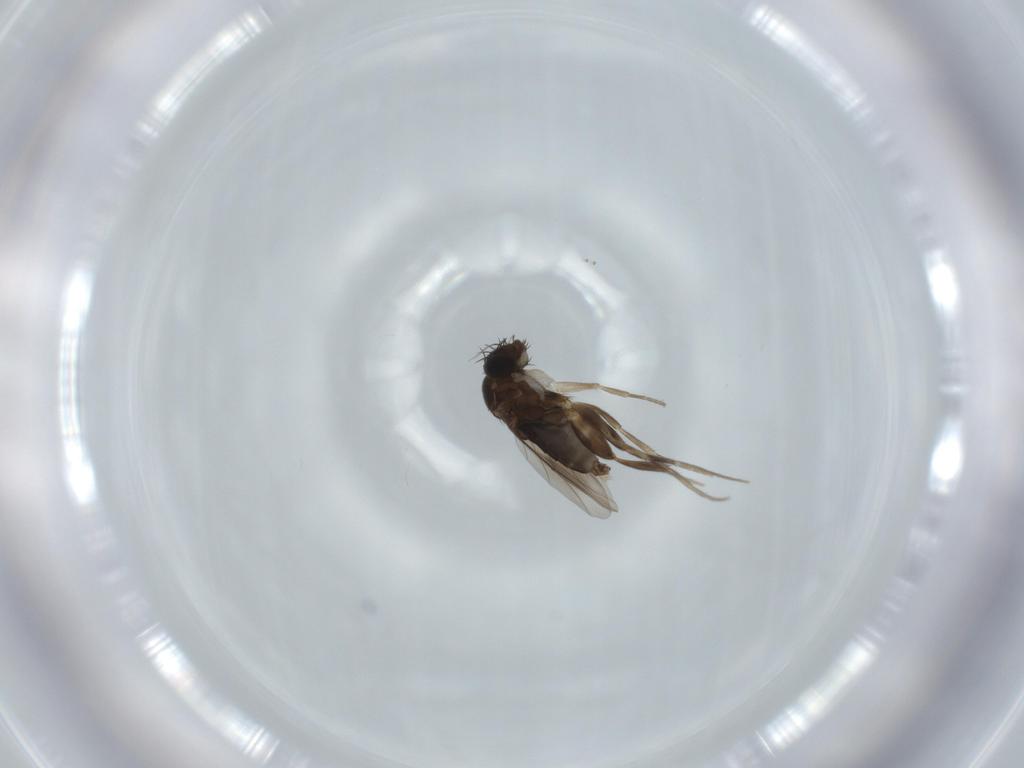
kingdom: Animalia
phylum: Arthropoda
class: Insecta
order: Diptera
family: Phoridae
